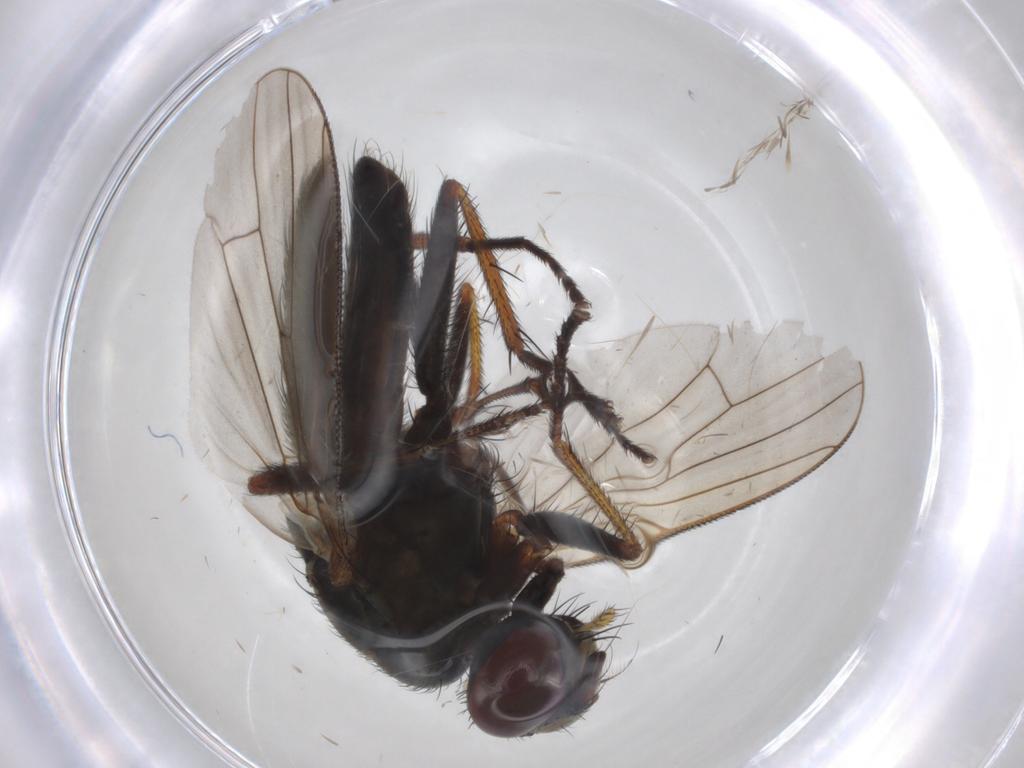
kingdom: Animalia
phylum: Arthropoda
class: Insecta
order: Diptera
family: Muscidae
